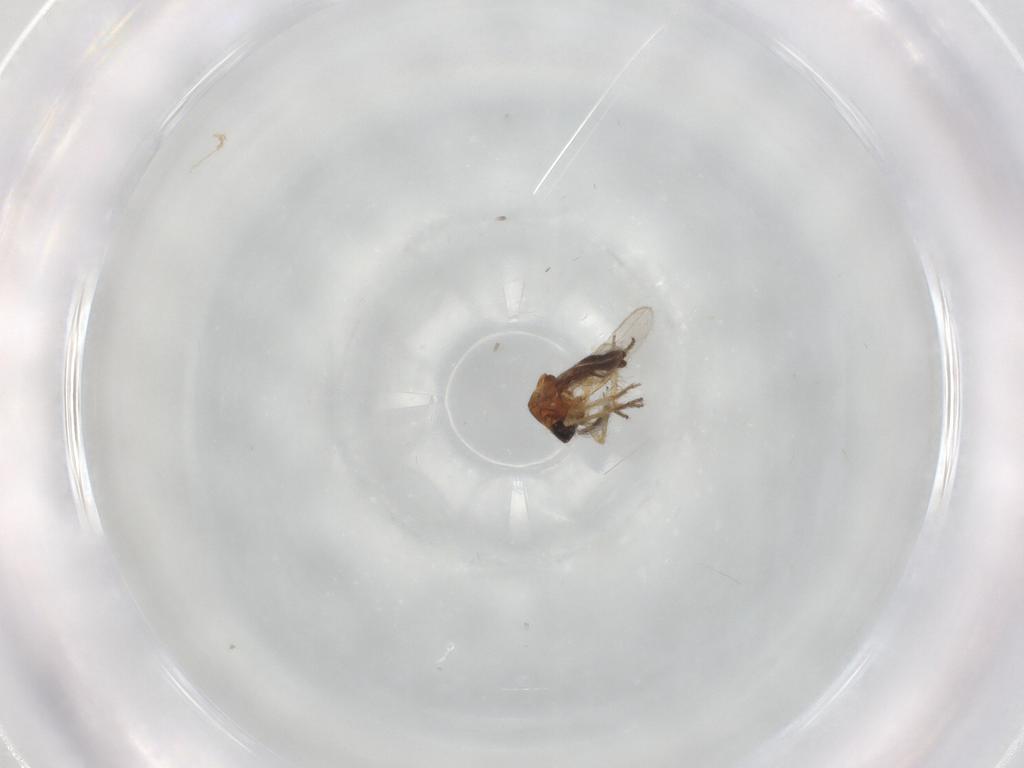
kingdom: Animalia
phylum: Arthropoda
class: Insecta
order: Diptera
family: Ceratopogonidae
